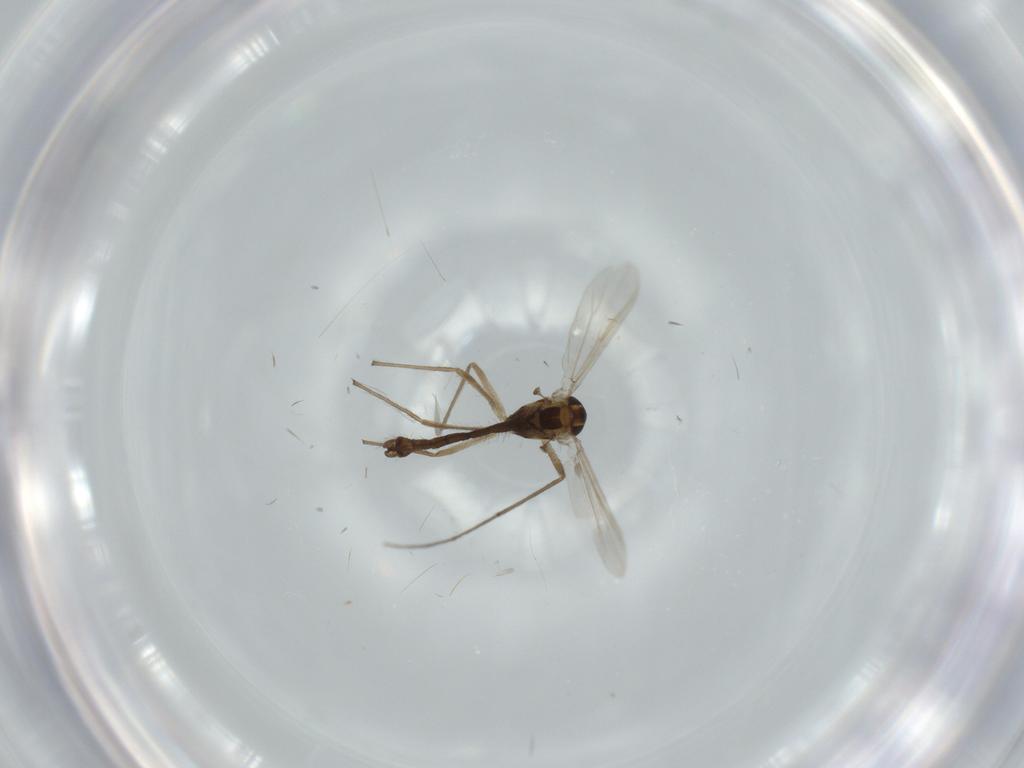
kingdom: Animalia
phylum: Arthropoda
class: Insecta
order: Diptera
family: Chironomidae
